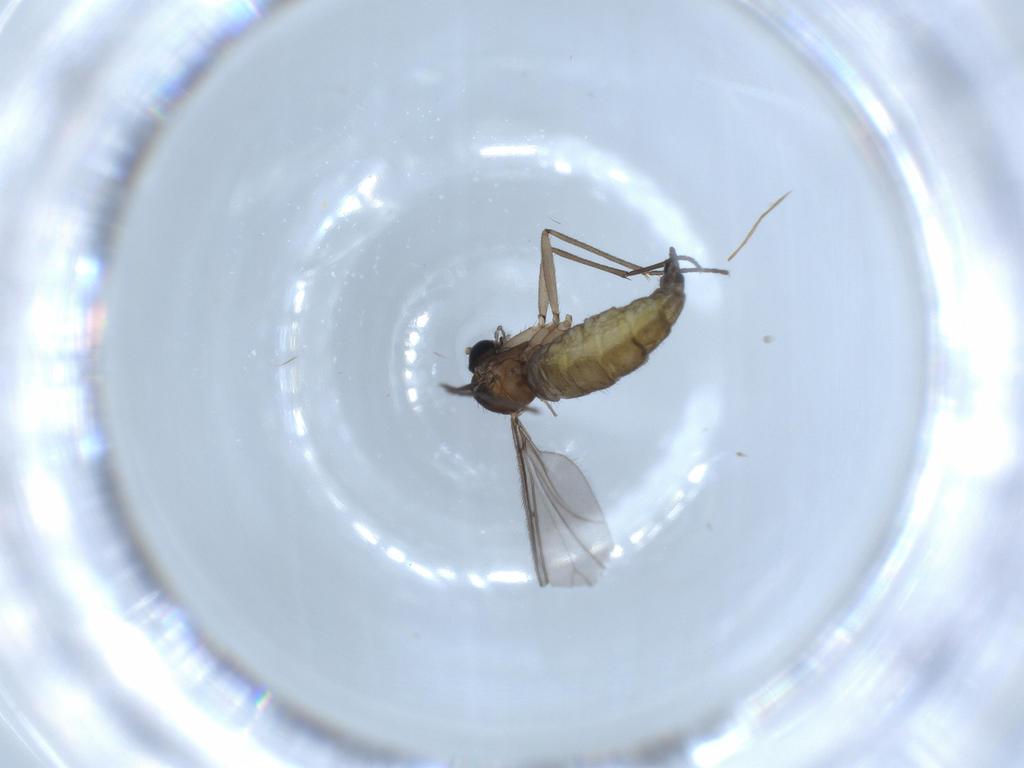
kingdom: Animalia
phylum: Arthropoda
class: Insecta
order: Diptera
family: Sciaridae
